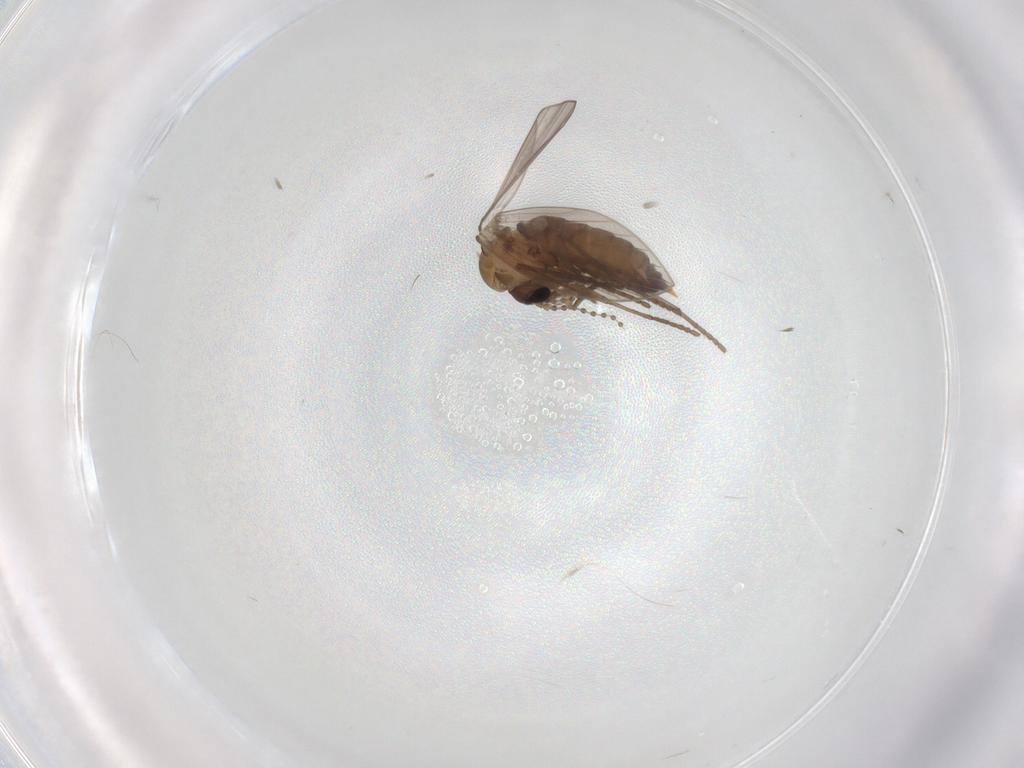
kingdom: Animalia
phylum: Arthropoda
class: Insecta
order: Diptera
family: Psychodidae
